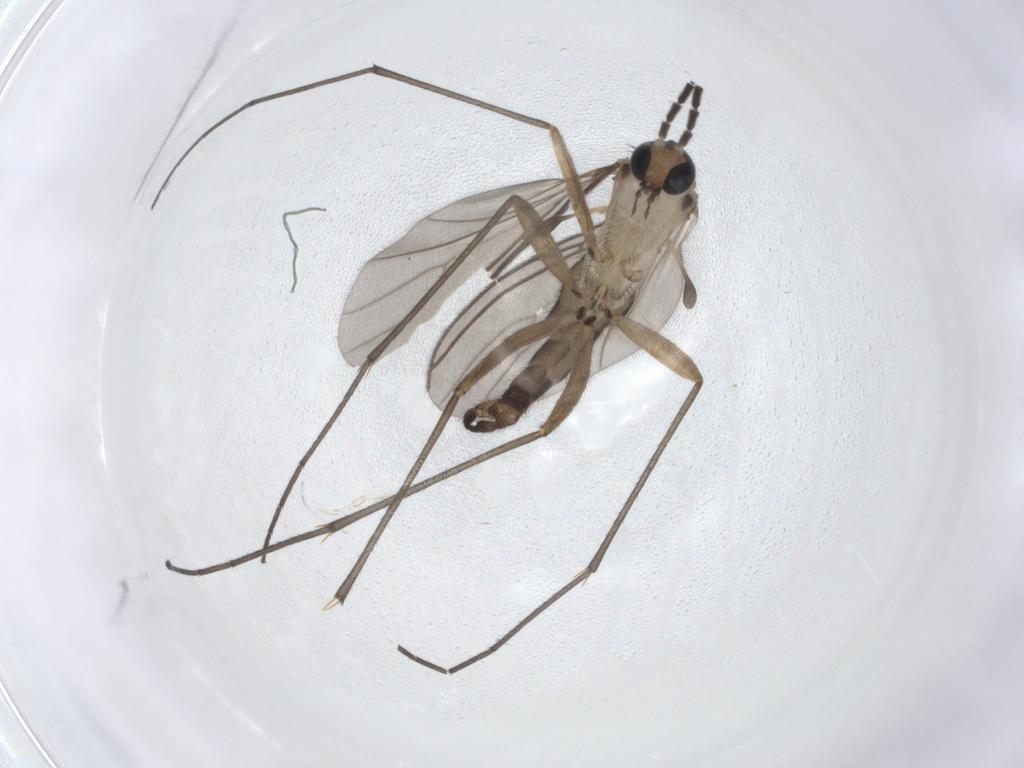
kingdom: Animalia
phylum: Arthropoda
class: Insecta
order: Diptera
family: Sciaridae
